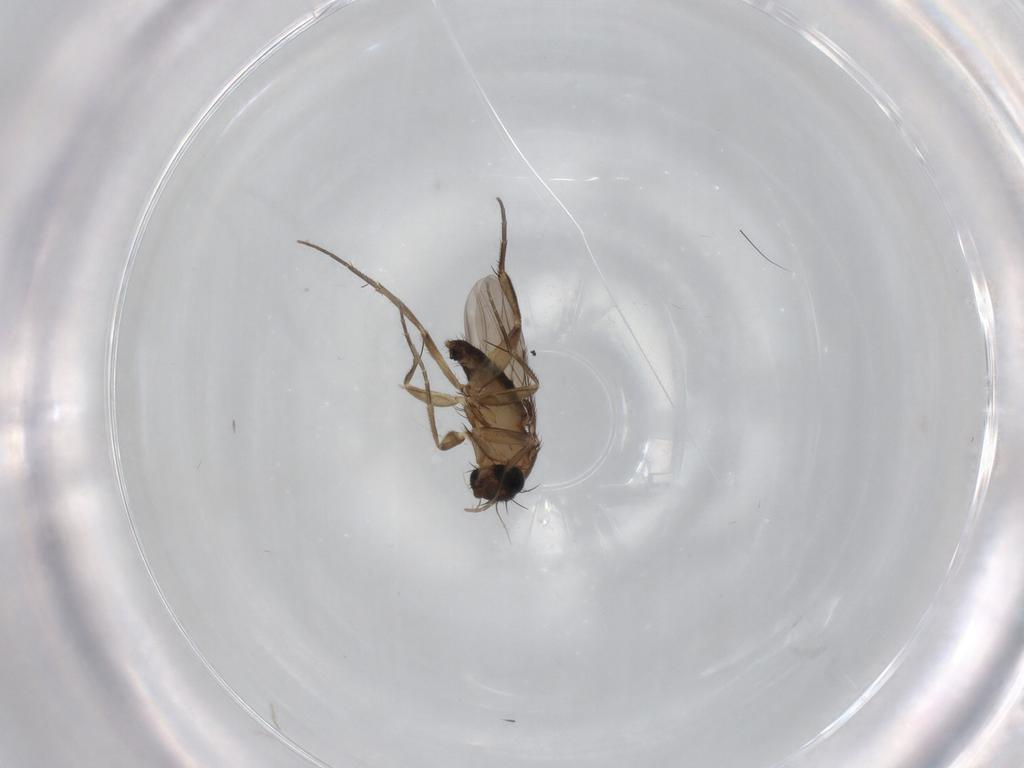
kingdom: Animalia
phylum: Arthropoda
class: Insecta
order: Diptera
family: Phoridae
